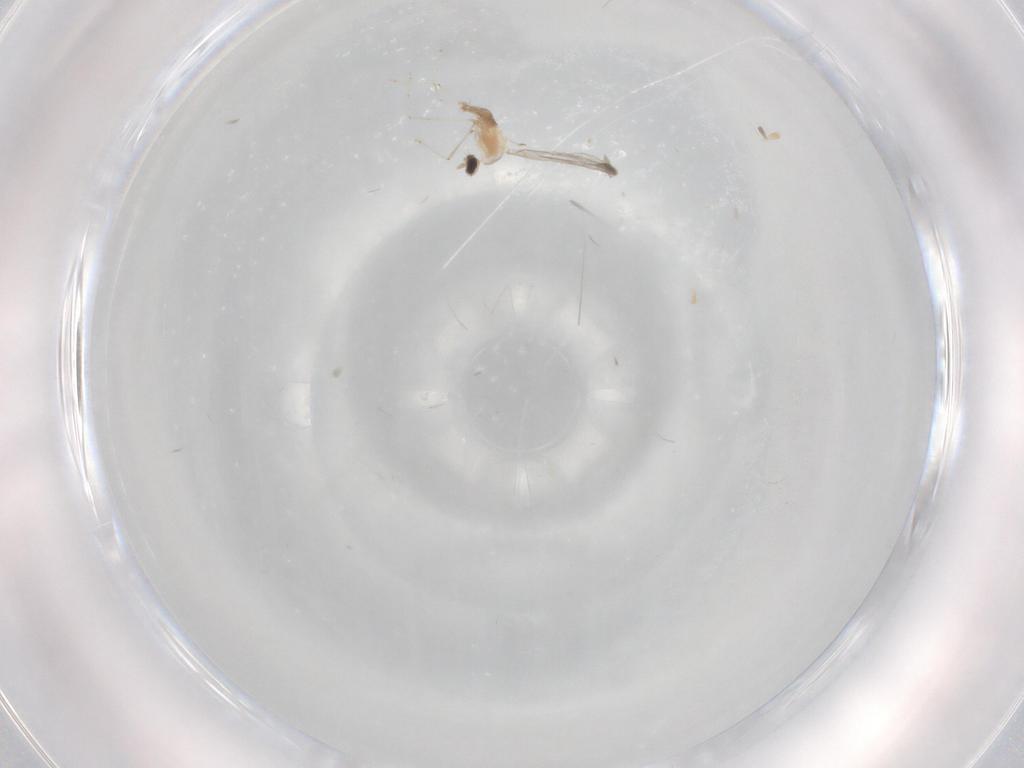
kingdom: Animalia
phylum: Arthropoda
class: Insecta
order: Diptera
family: Cecidomyiidae
